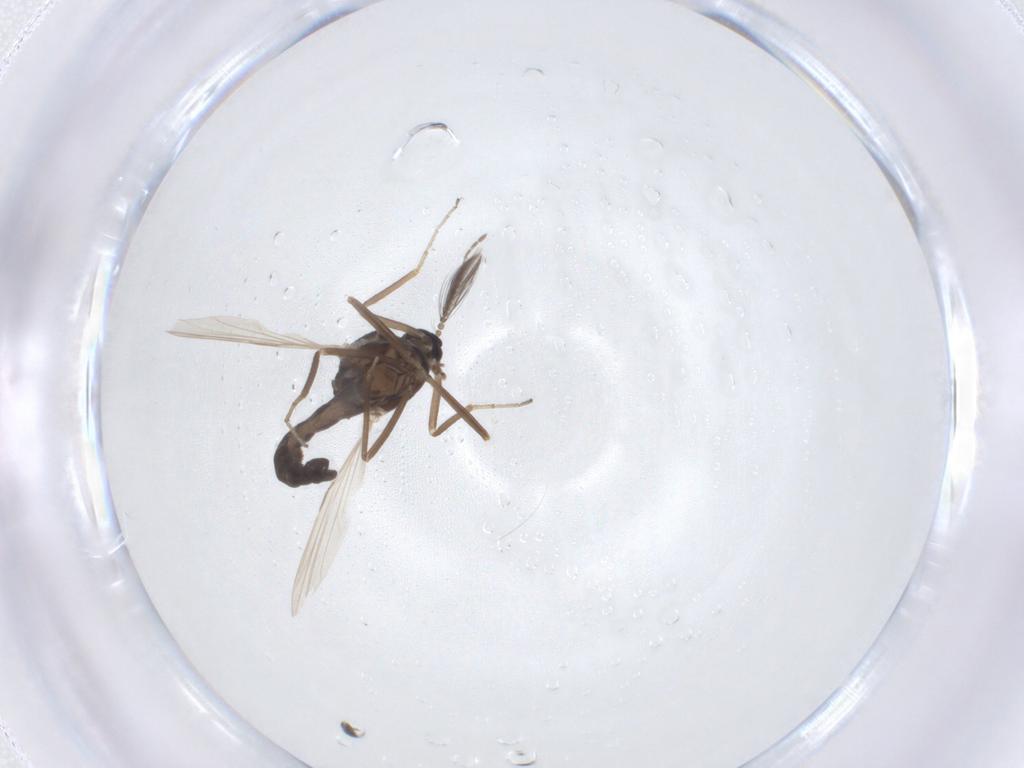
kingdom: Animalia
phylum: Arthropoda
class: Insecta
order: Diptera
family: Ceratopogonidae
